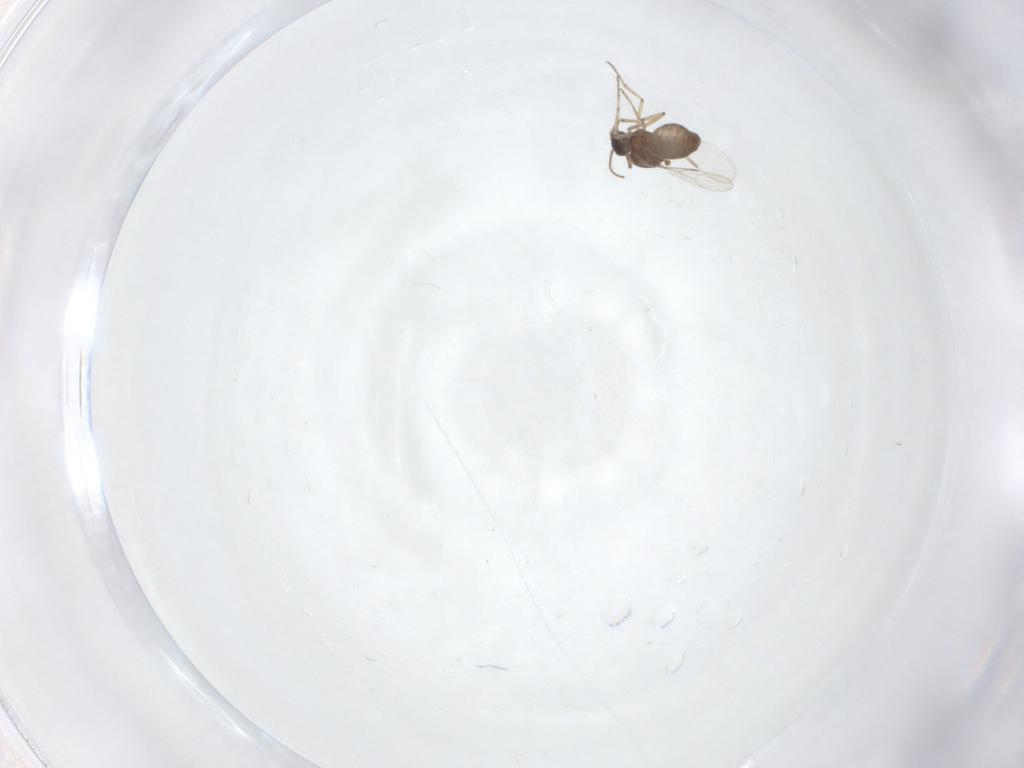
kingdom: Animalia
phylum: Arthropoda
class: Insecta
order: Diptera
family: Ceratopogonidae
